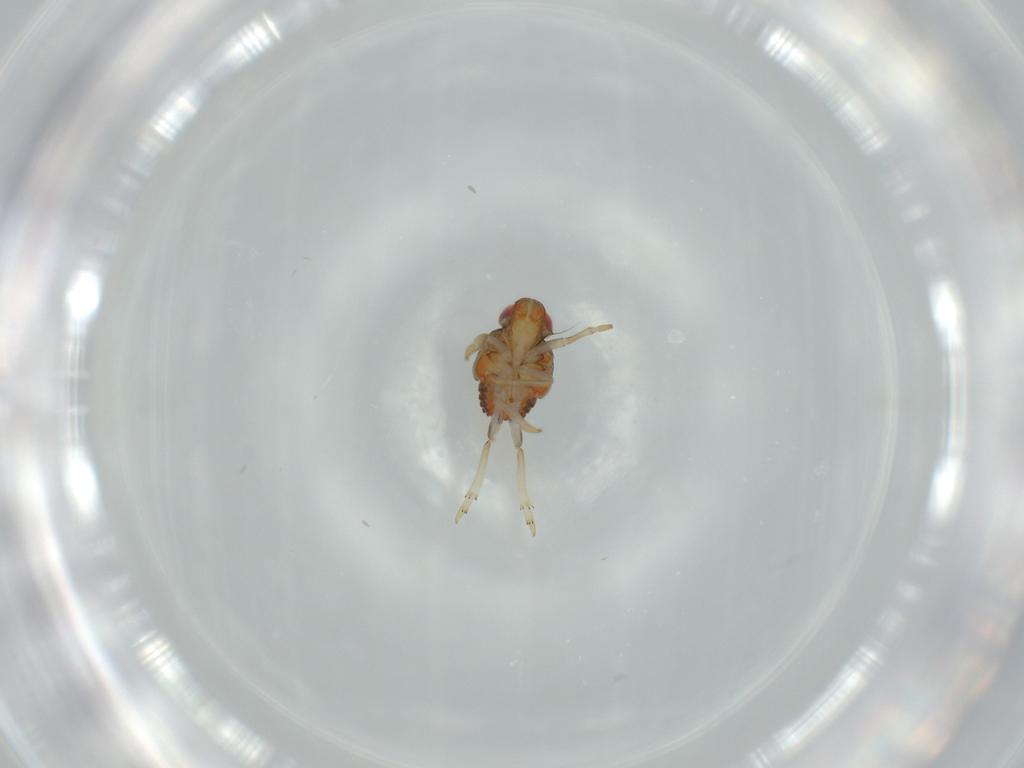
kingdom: Animalia
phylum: Arthropoda
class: Insecta
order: Hemiptera
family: Issidae
